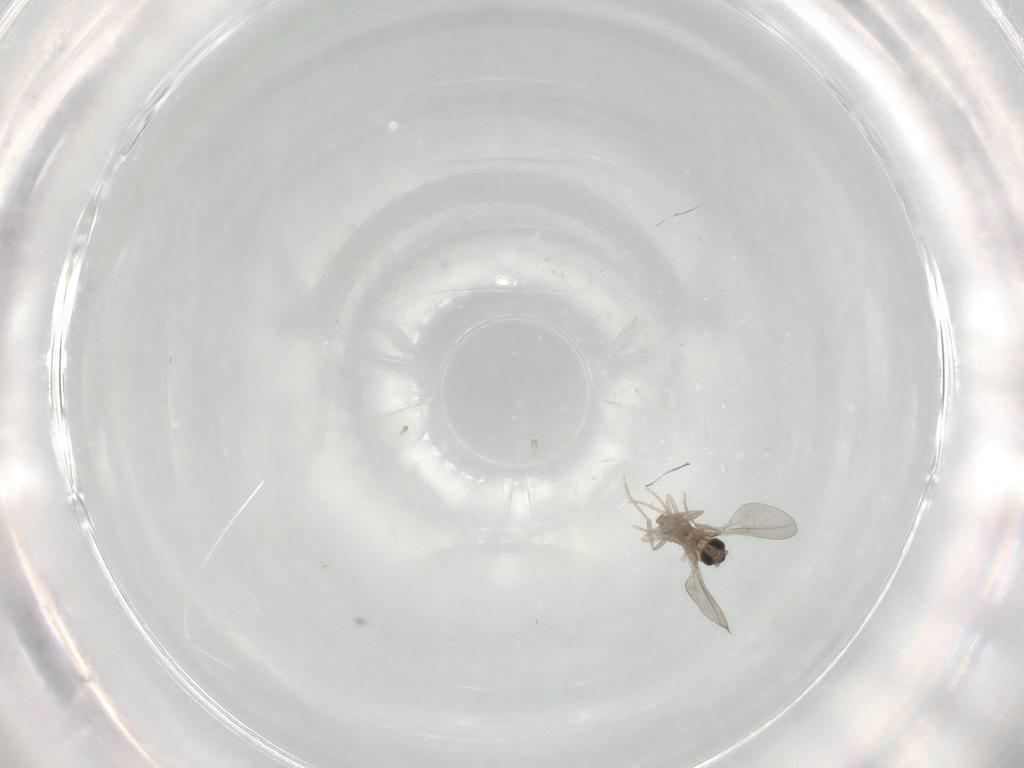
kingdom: Animalia
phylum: Arthropoda
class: Insecta
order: Diptera
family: Cecidomyiidae
